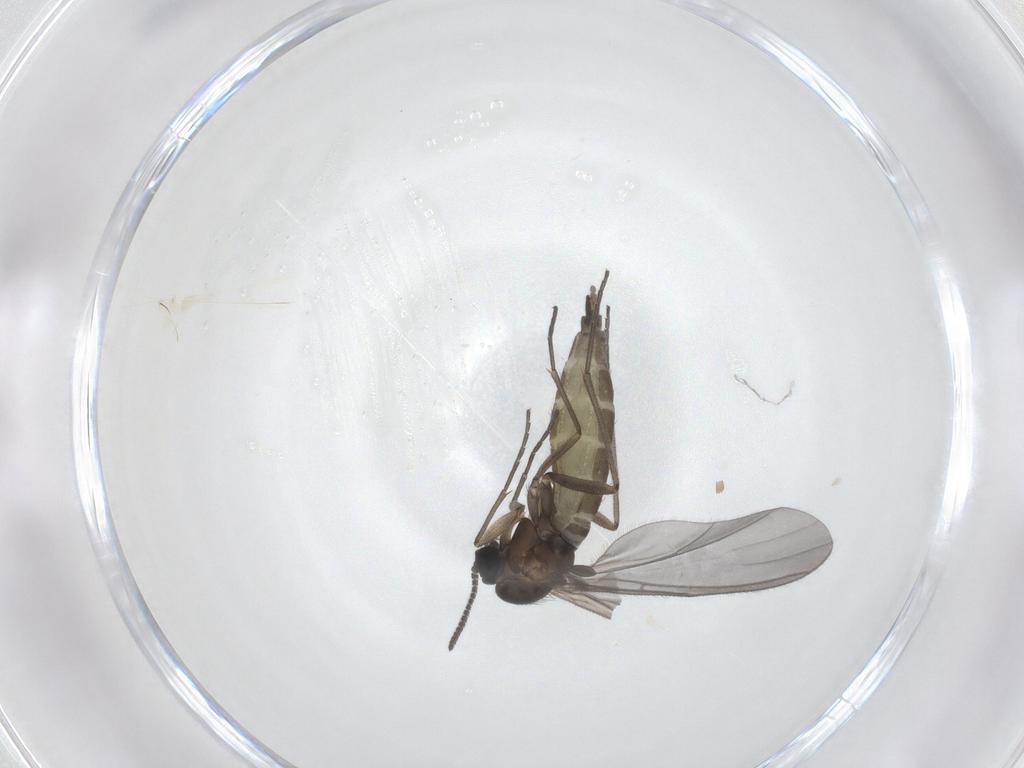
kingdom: Animalia
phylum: Arthropoda
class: Insecta
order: Diptera
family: Sciaridae
